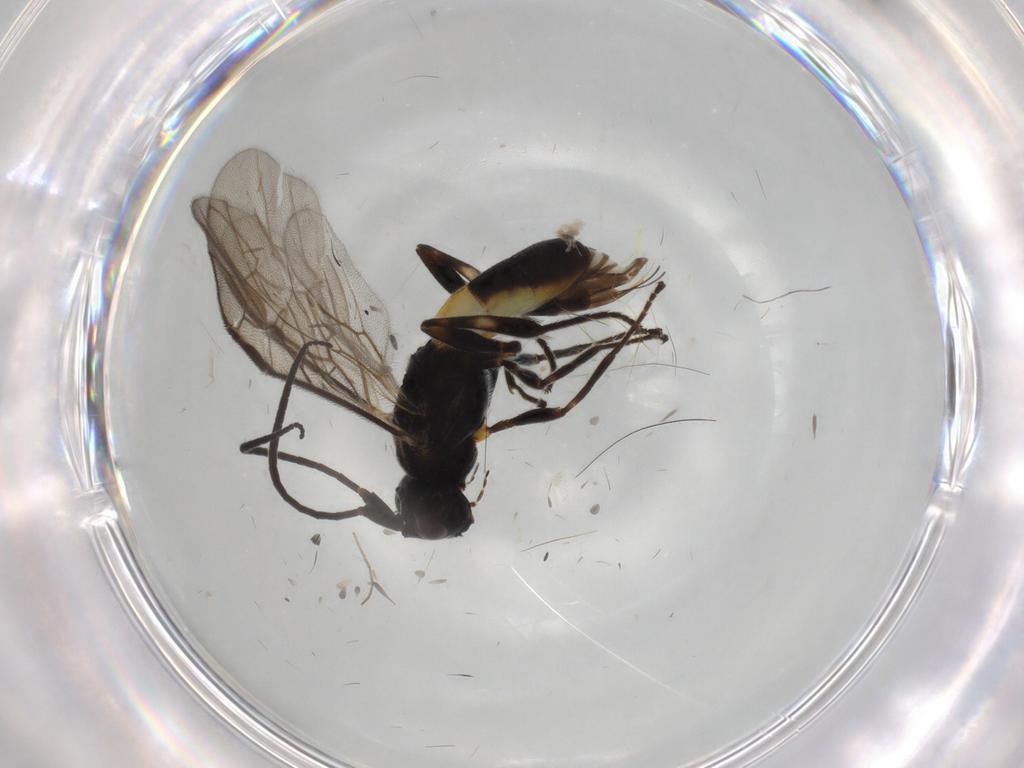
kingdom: Animalia
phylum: Arthropoda
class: Insecta
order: Hymenoptera
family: Braconidae
